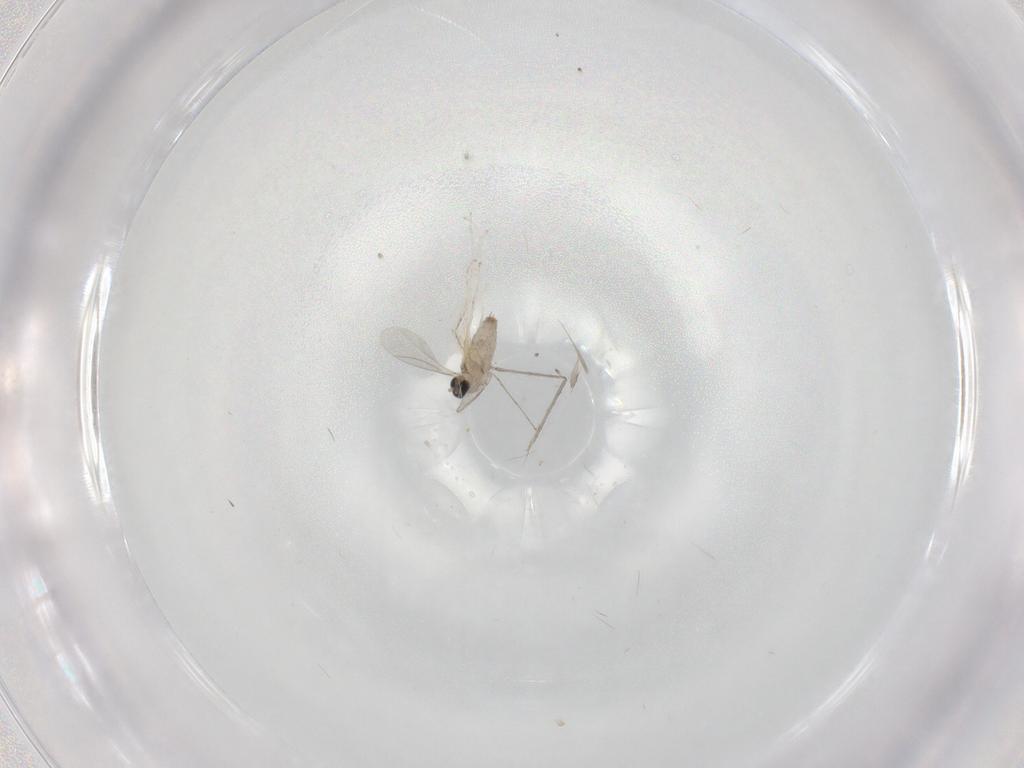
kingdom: Animalia
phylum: Arthropoda
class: Insecta
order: Diptera
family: Cecidomyiidae
